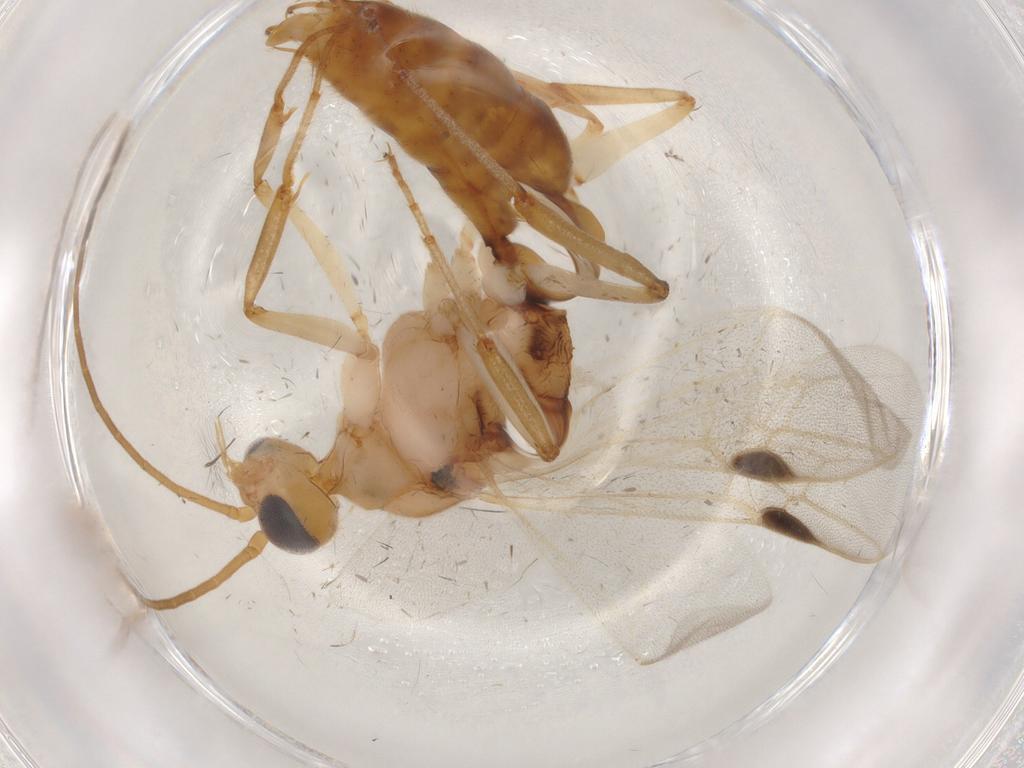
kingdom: Animalia
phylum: Arthropoda
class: Insecta
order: Hymenoptera
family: Formicidae
